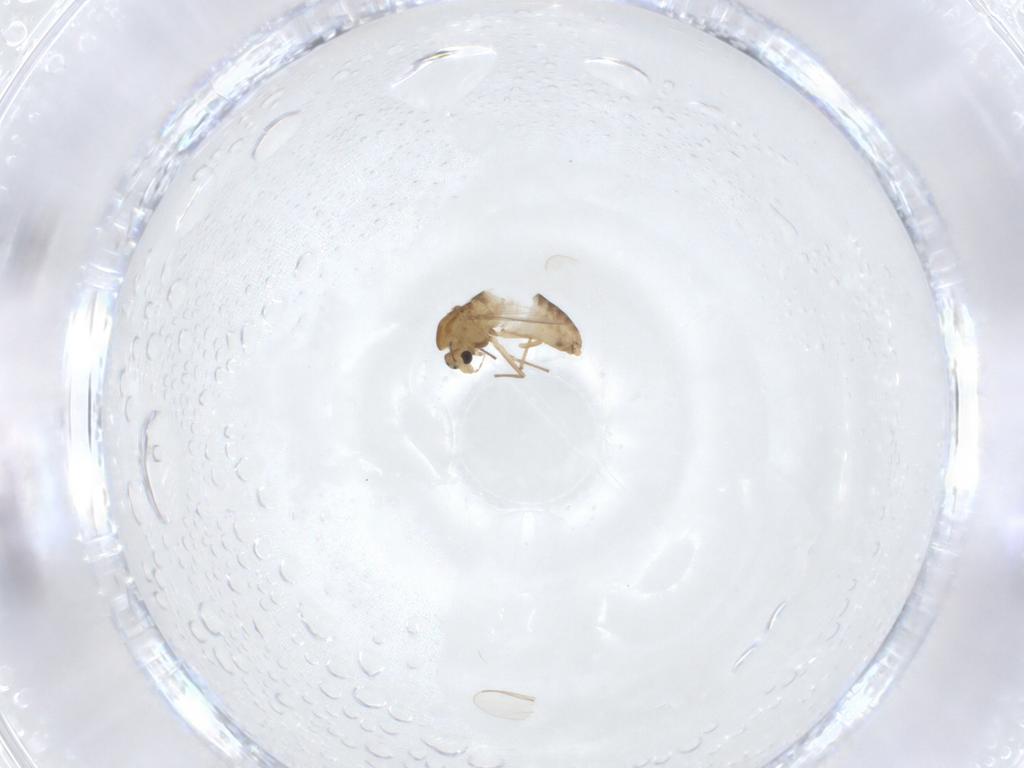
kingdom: Animalia
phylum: Arthropoda
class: Insecta
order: Diptera
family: Chironomidae
